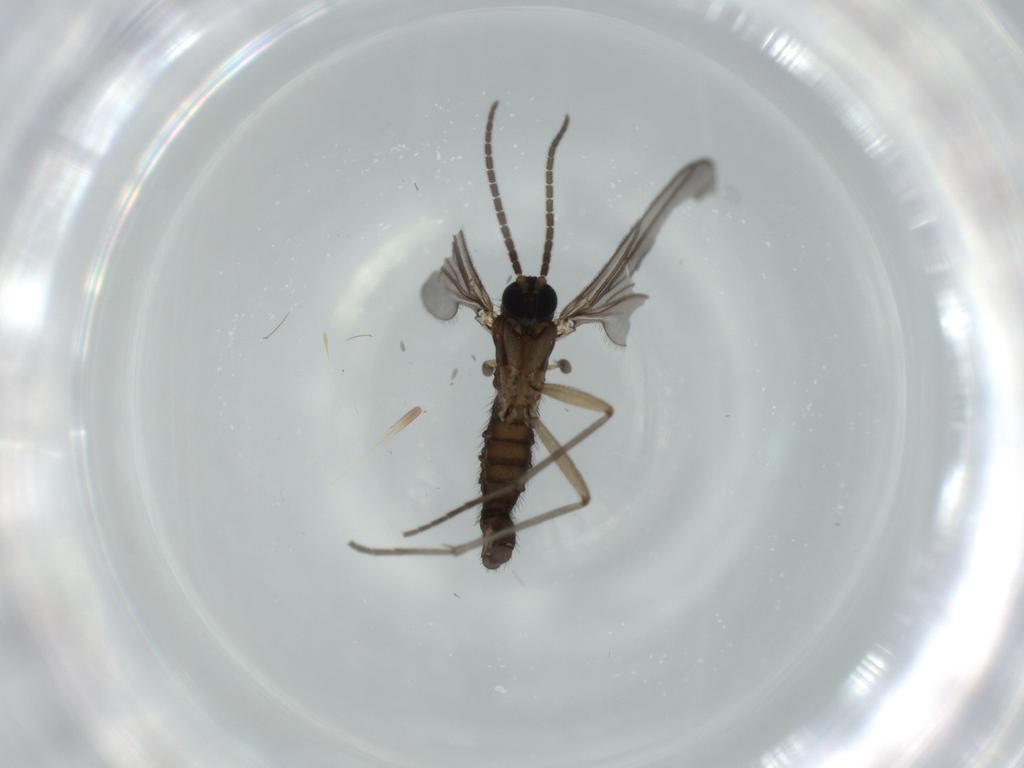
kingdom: Animalia
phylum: Arthropoda
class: Insecta
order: Diptera
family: Sciaridae
